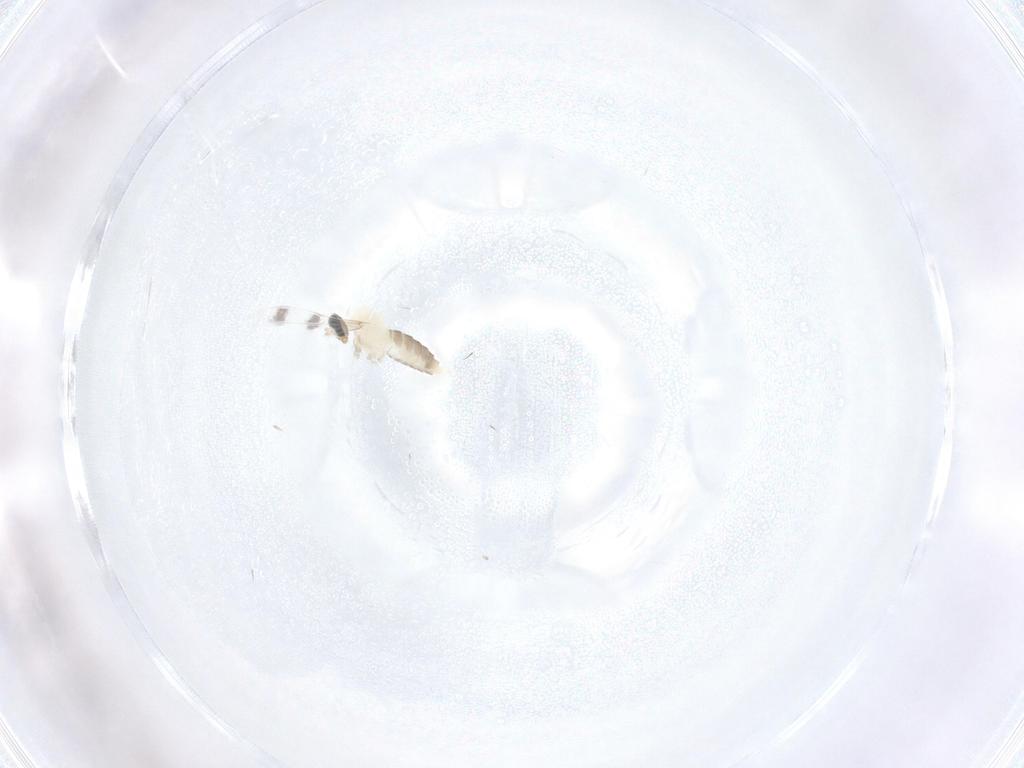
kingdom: Animalia
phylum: Arthropoda
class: Insecta
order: Diptera
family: Cecidomyiidae
